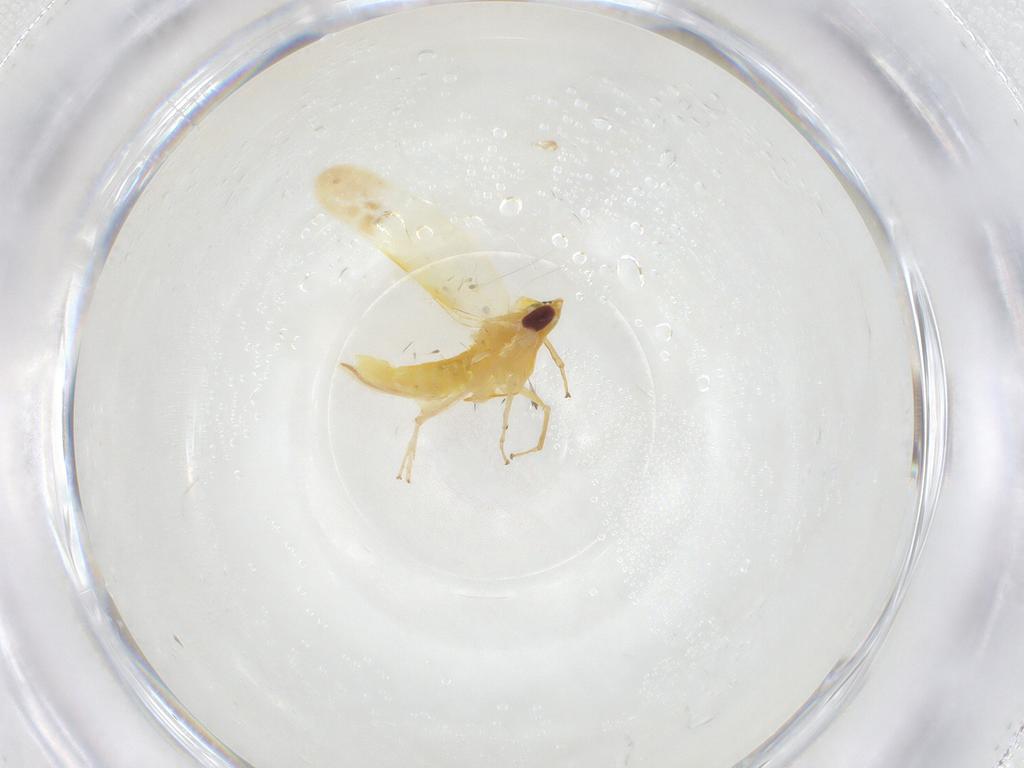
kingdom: Animalia
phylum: Arthropoda
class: Insecta
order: Hemiptera
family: Cicadellidae
